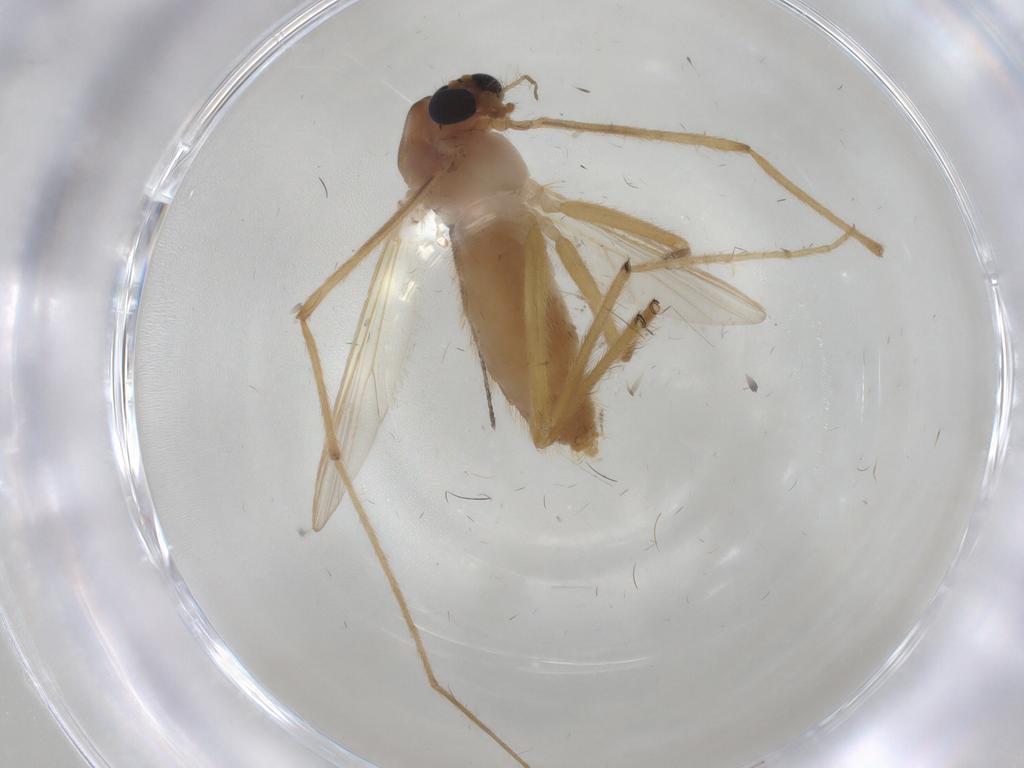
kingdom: Animalia
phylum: Arthropoda
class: Insecta
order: Diptera
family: Chironomidae
